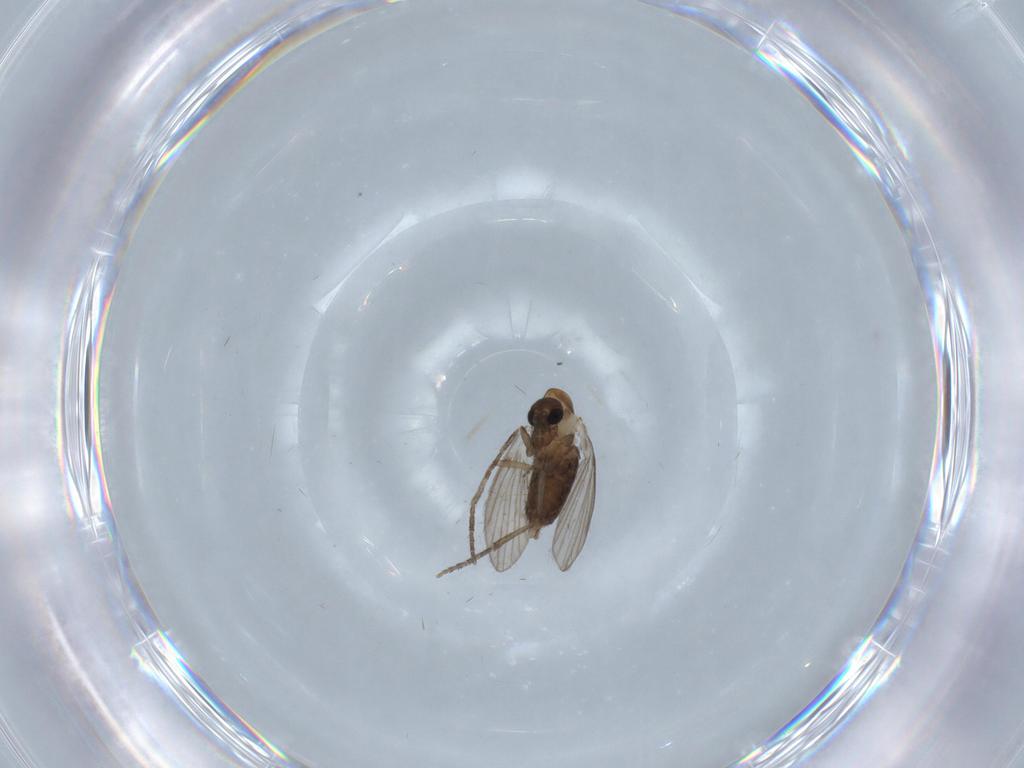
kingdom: Animalia
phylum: Arthropoda
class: Insecta
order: Diptera
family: Psychodidae
